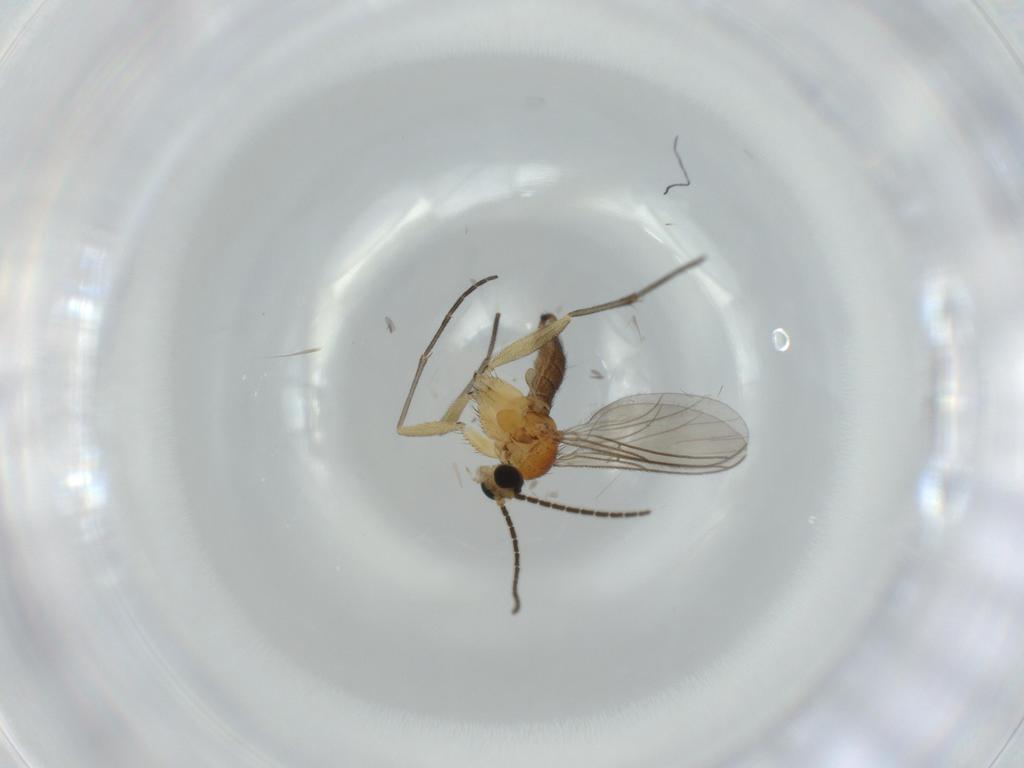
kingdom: Animalia
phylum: Arthropoda
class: Insecta
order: Diptera
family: Sciaridae
